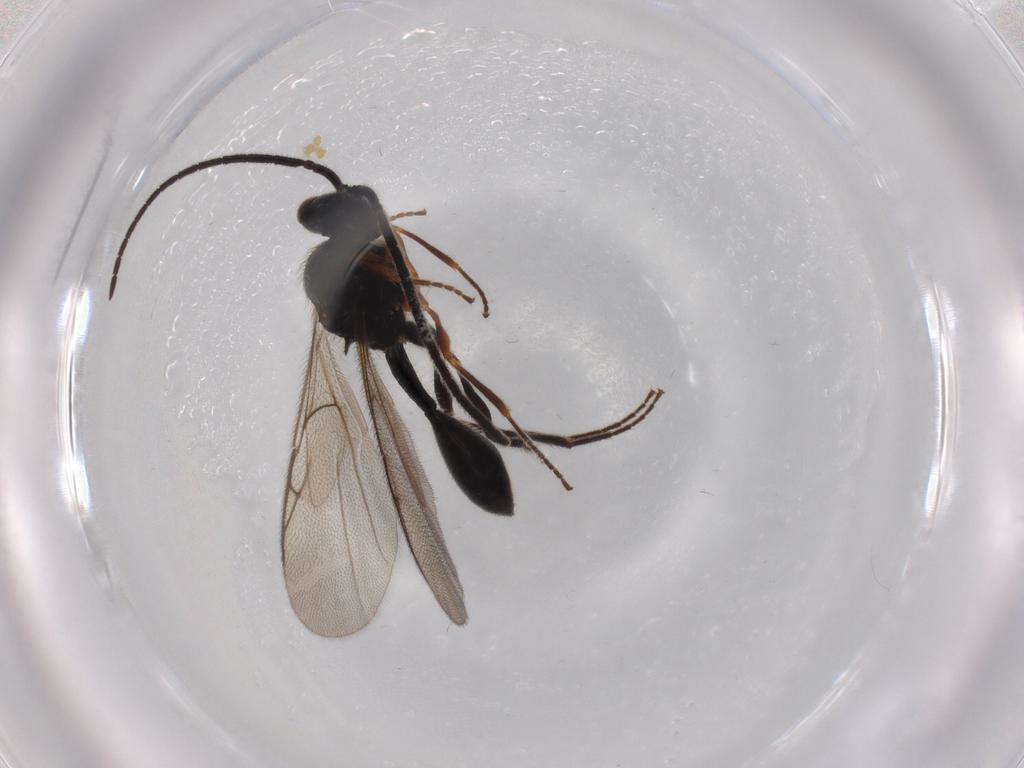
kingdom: Animalia
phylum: Arthropoda
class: Insecta
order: Hymenoptera
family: Diapriidae
